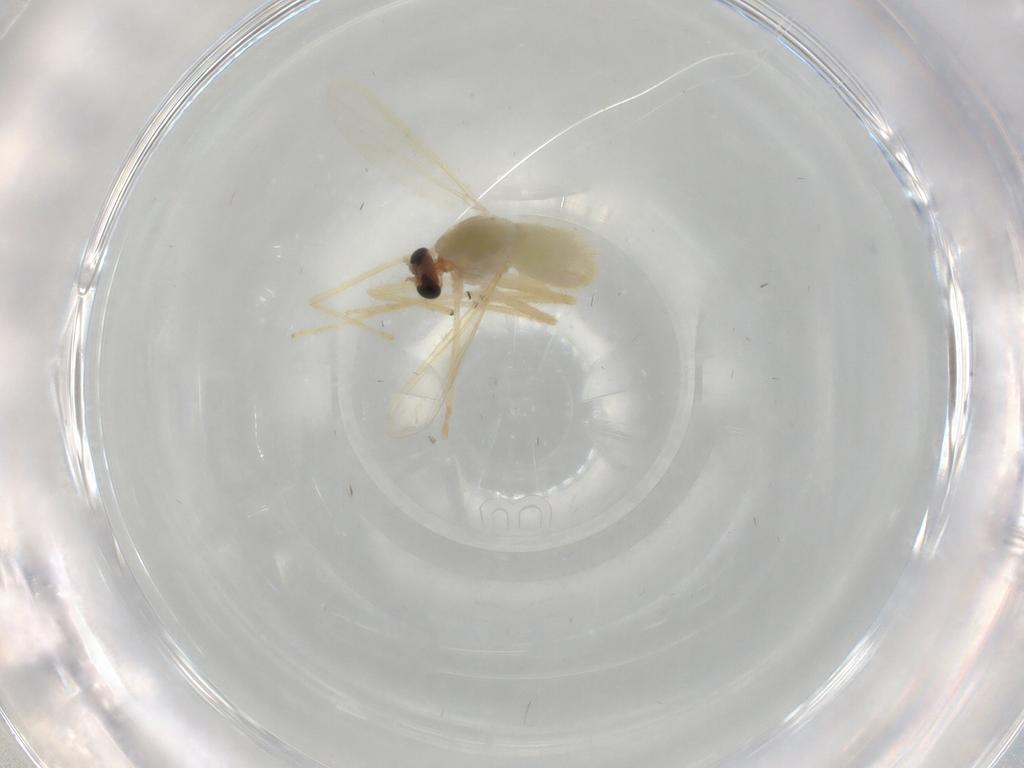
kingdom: Animalia
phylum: Arthropoda
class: Insecta
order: Diptera
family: Chironomidae
